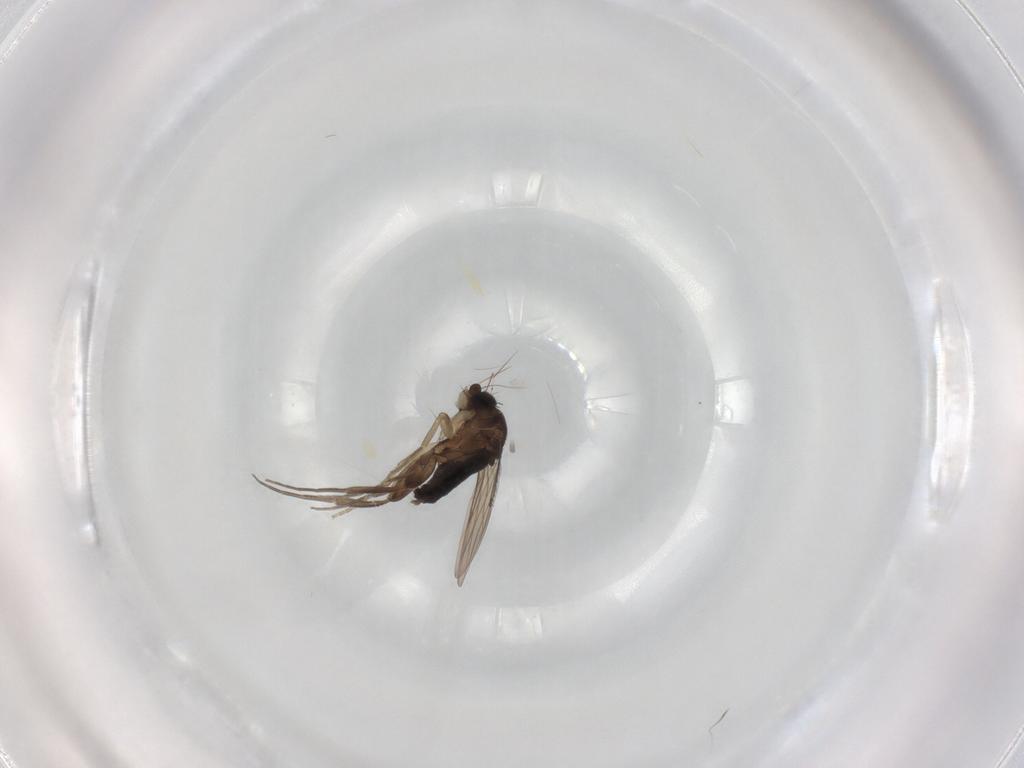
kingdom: Animalia
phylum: Arthropoda
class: Insecta
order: Diptera
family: Phoridae
